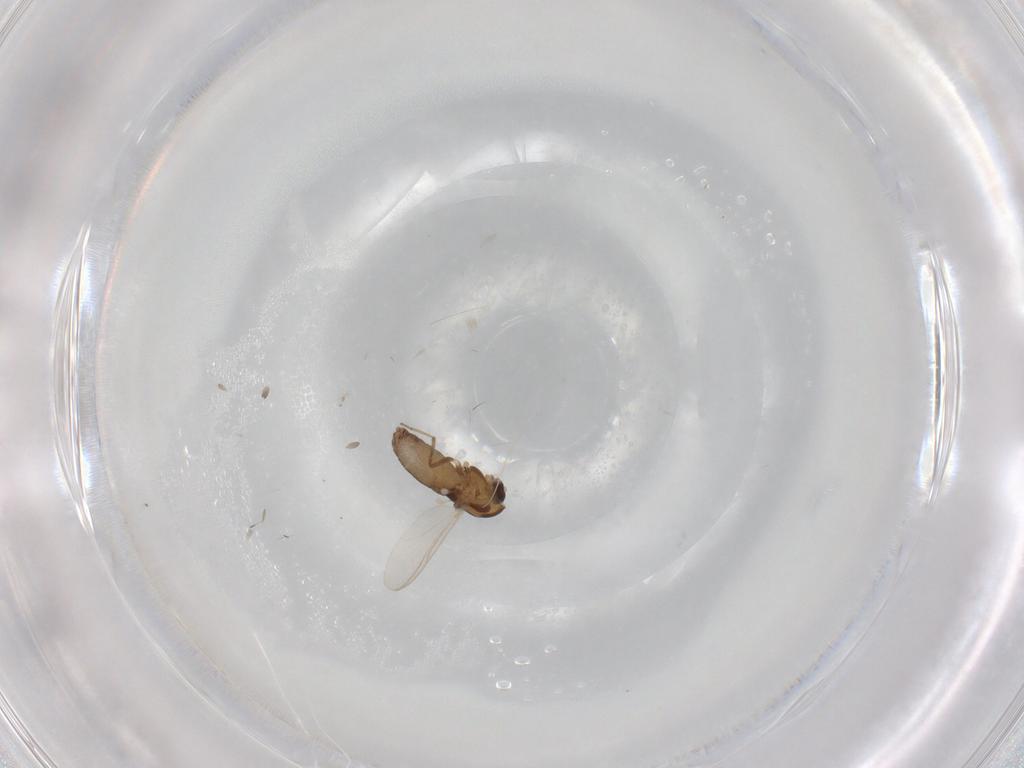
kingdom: Animalia
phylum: Arthropoda
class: Insecta
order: Diptera
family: Chironomidae
